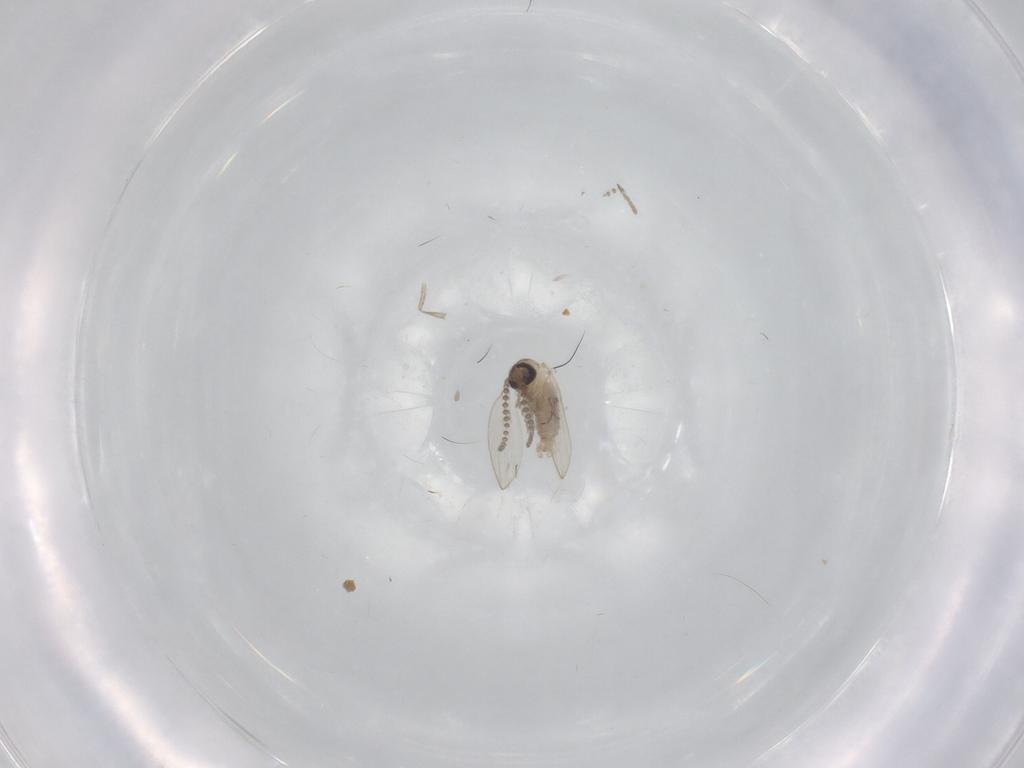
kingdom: Animalia
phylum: Arthropoda
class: Insecta
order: Diptera
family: Psychodidae
